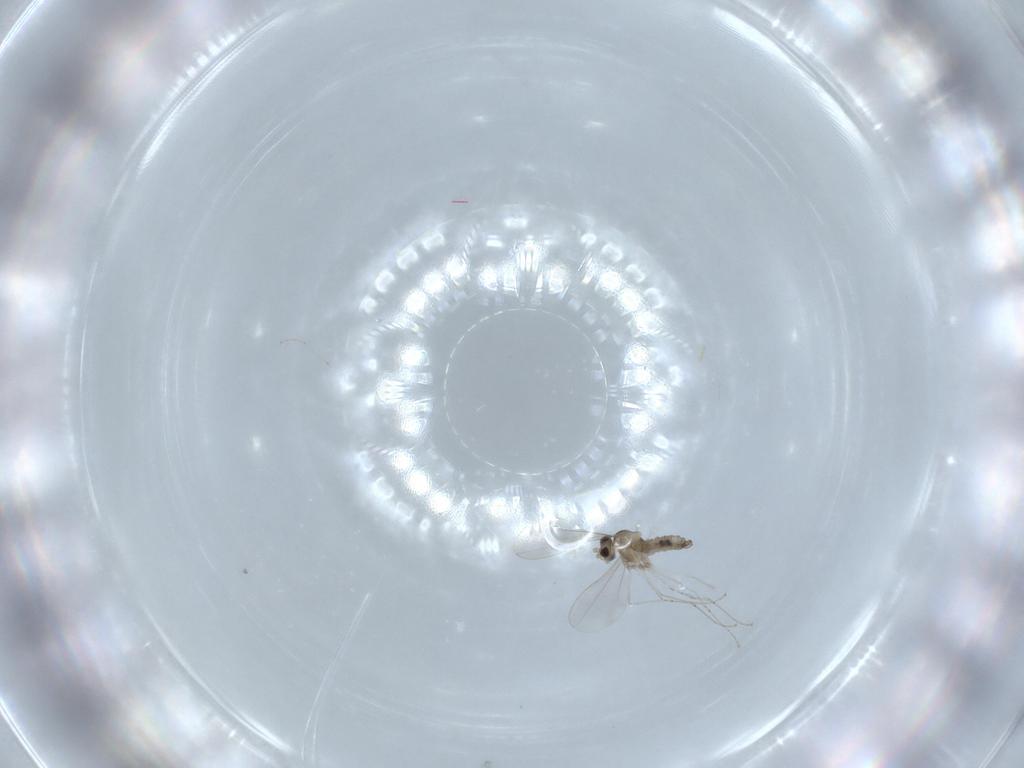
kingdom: Animalia
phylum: Arthropoda
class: Insecta
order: Diptera
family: Cecidomyiidae
